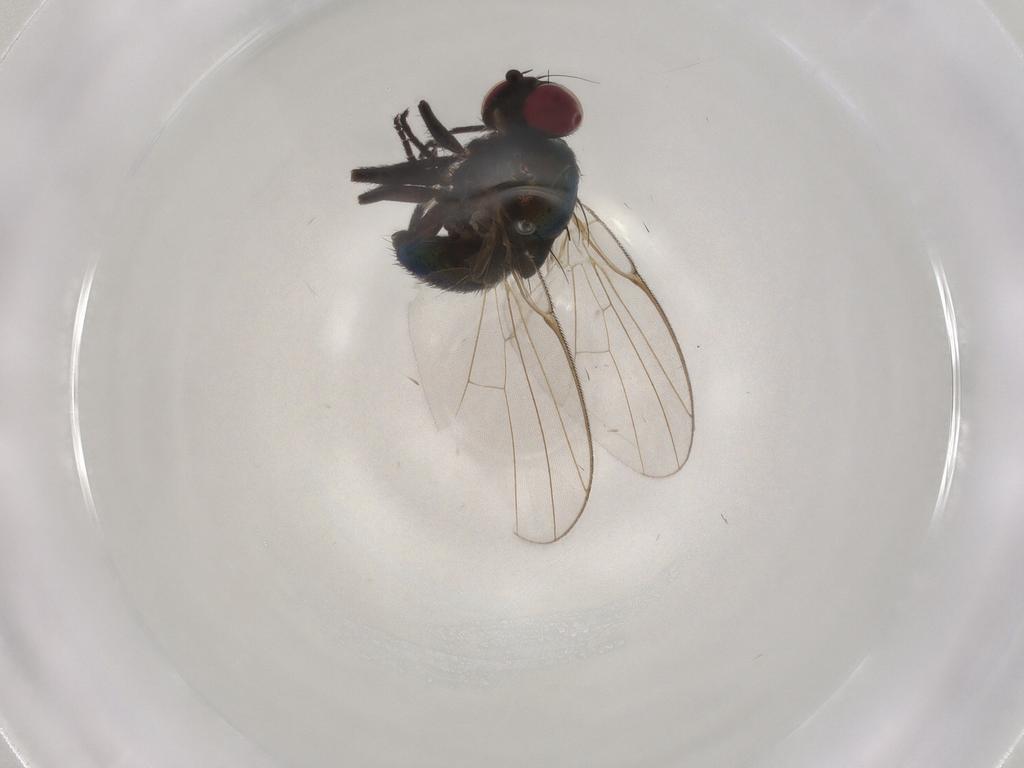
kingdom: Animalia
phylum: Arthropoda
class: Insecta
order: Diptera
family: Agromyzidae
